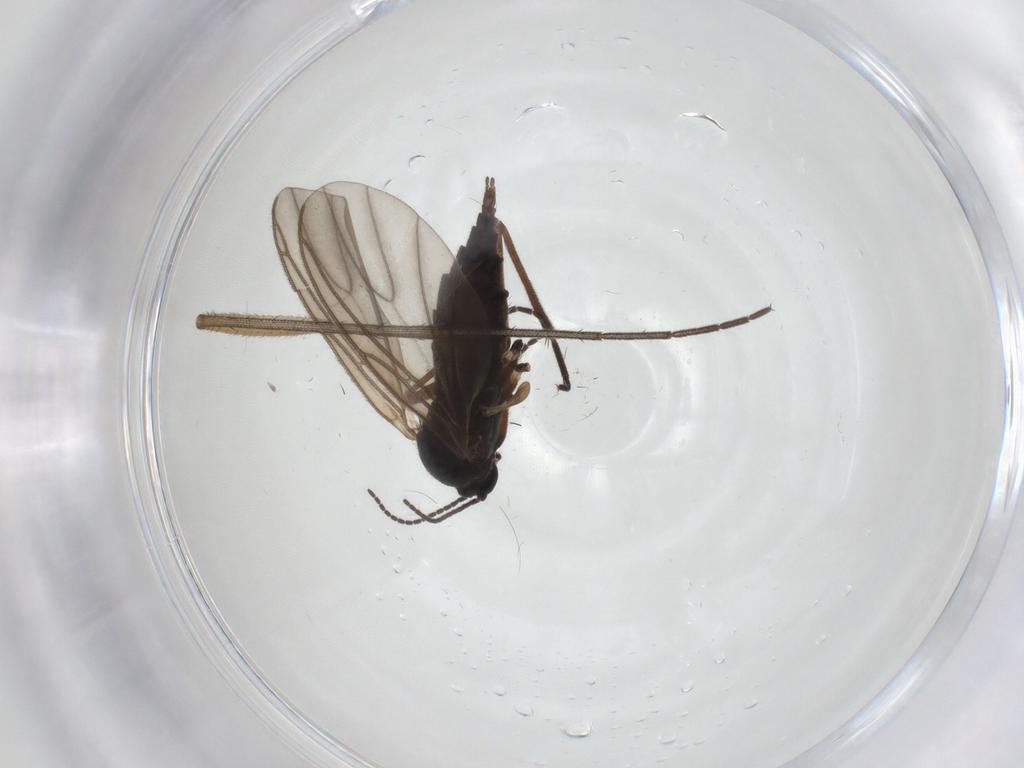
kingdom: Animalia
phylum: Arthropoda
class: Insecta
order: Diptera
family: Sciaridae
